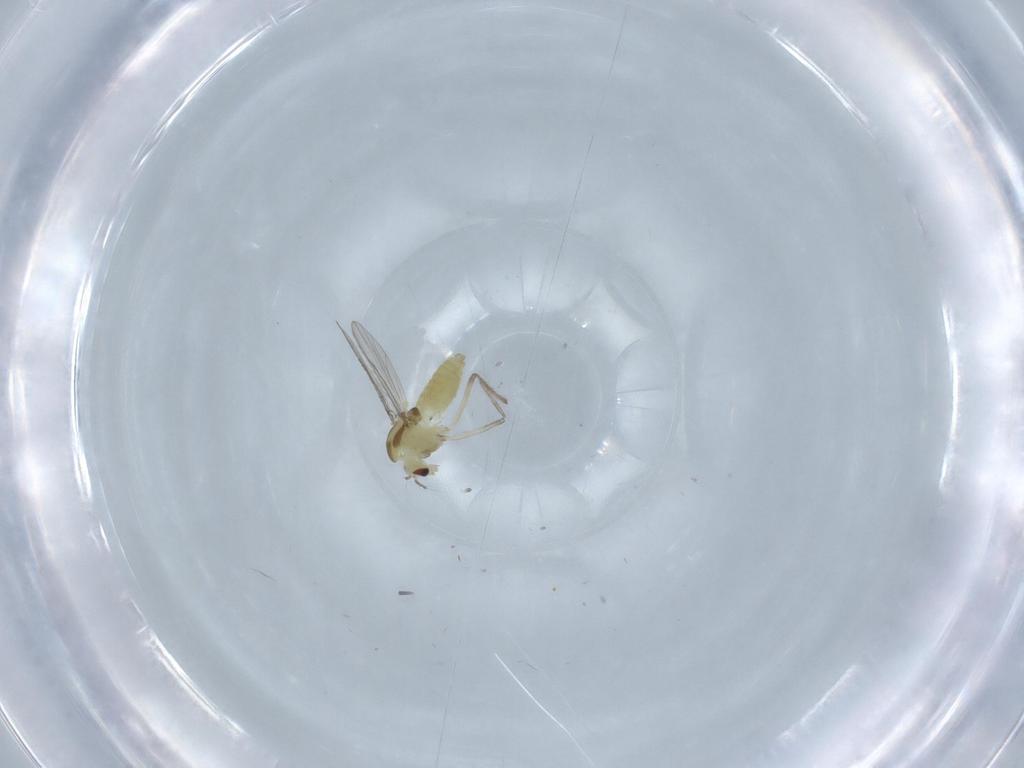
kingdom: Animalia
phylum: Arthropoda
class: Insecta
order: Diptera
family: Chironomidae
